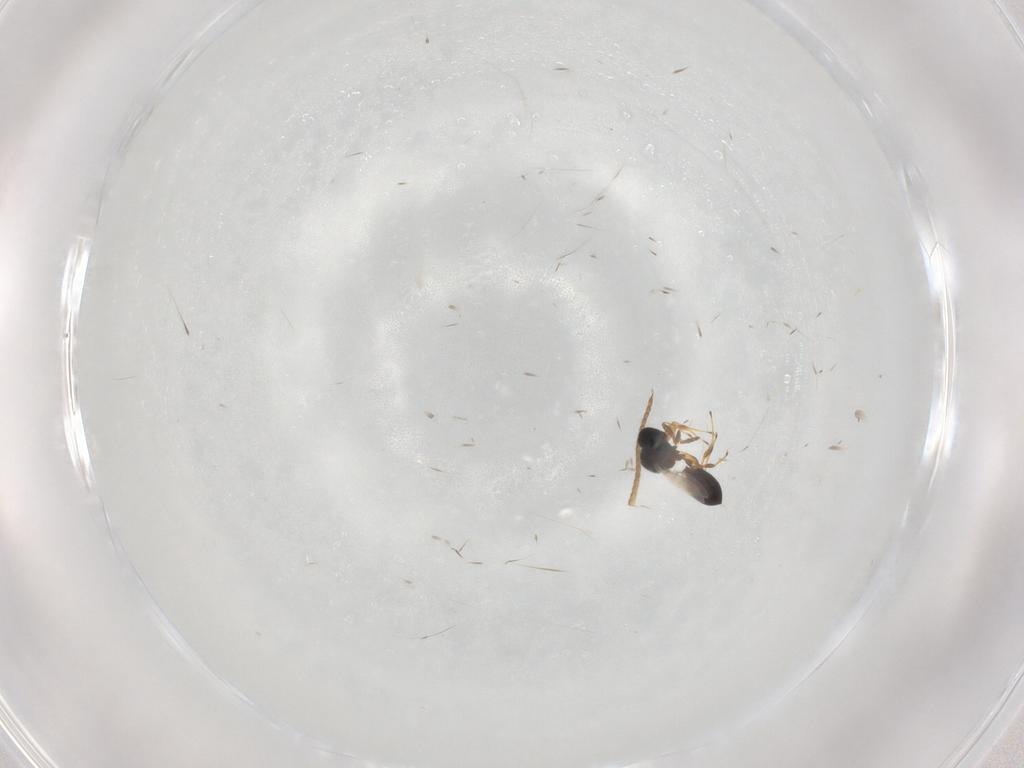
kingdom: Animalia
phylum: Arthropoda
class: Insecta
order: Hymenoptera
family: Platygastridae
